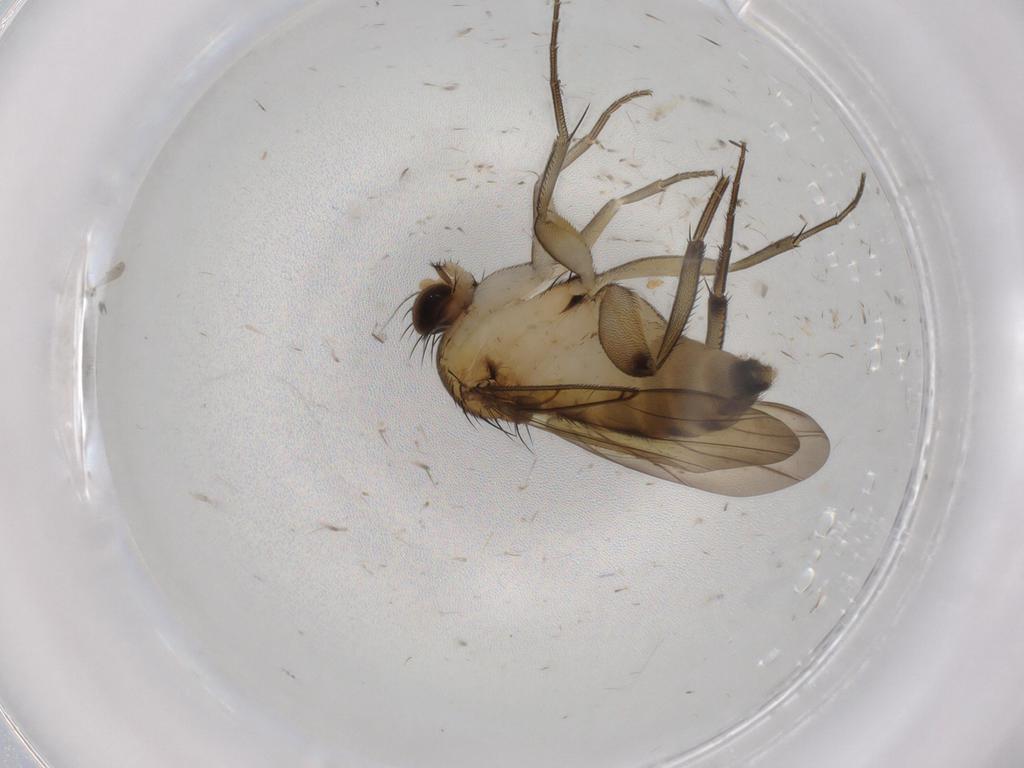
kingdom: Animalia
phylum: Arthropoda
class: Insecta
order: Diptera
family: Phoridae
